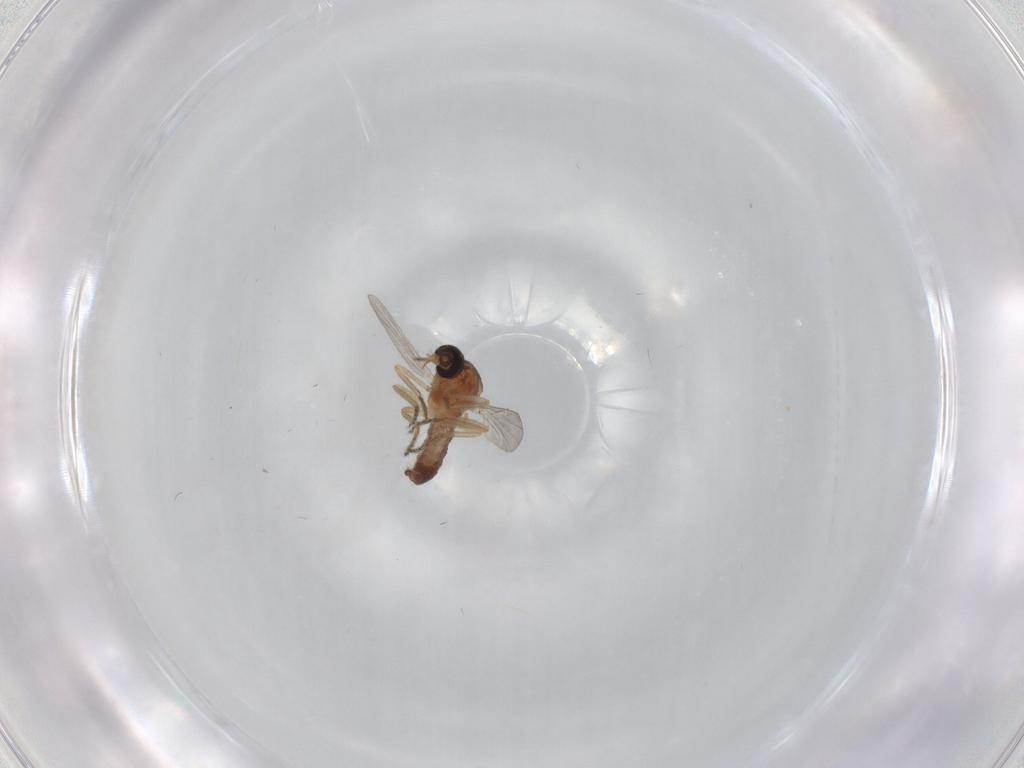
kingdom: Animalia
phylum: Arthropoda
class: Insecta
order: Diptera
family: Ceratopogonidae
